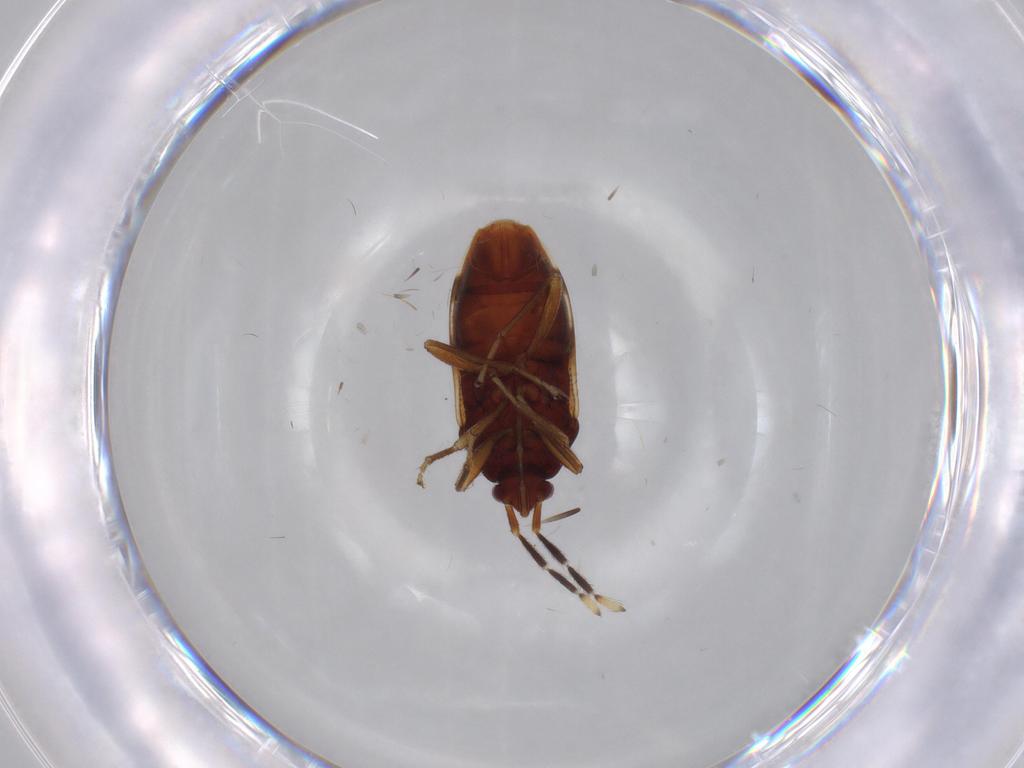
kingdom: Animalia
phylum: Arthropoda
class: Insecta
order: Hemiptera
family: Rhyparochromidae
